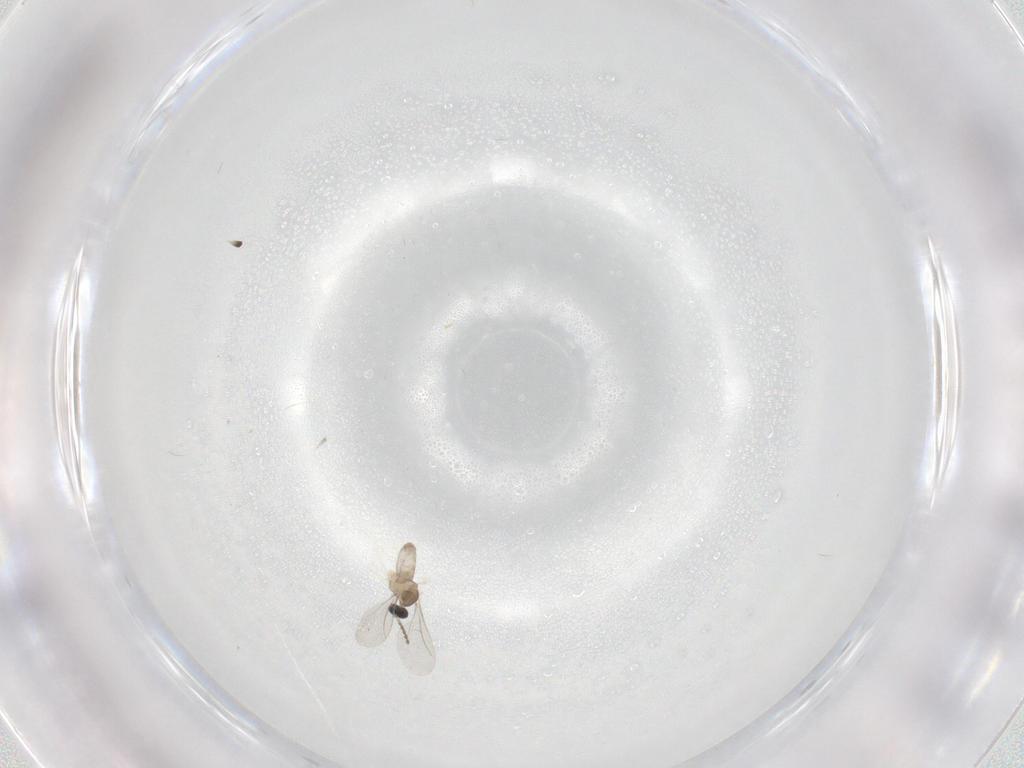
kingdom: Animalia
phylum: Arthropoda
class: Insecta
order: Diptera
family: Cecidomyiidae
